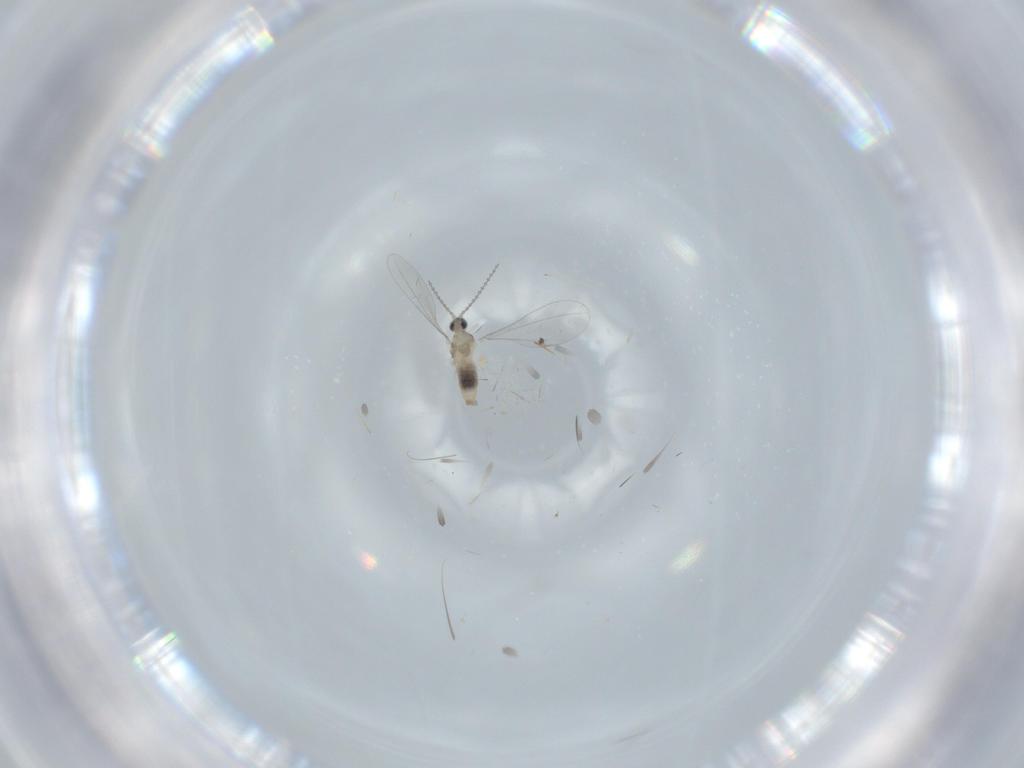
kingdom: Animalia
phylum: Arthropoda
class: Insecta
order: Diptera
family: Cecidomyiidae
